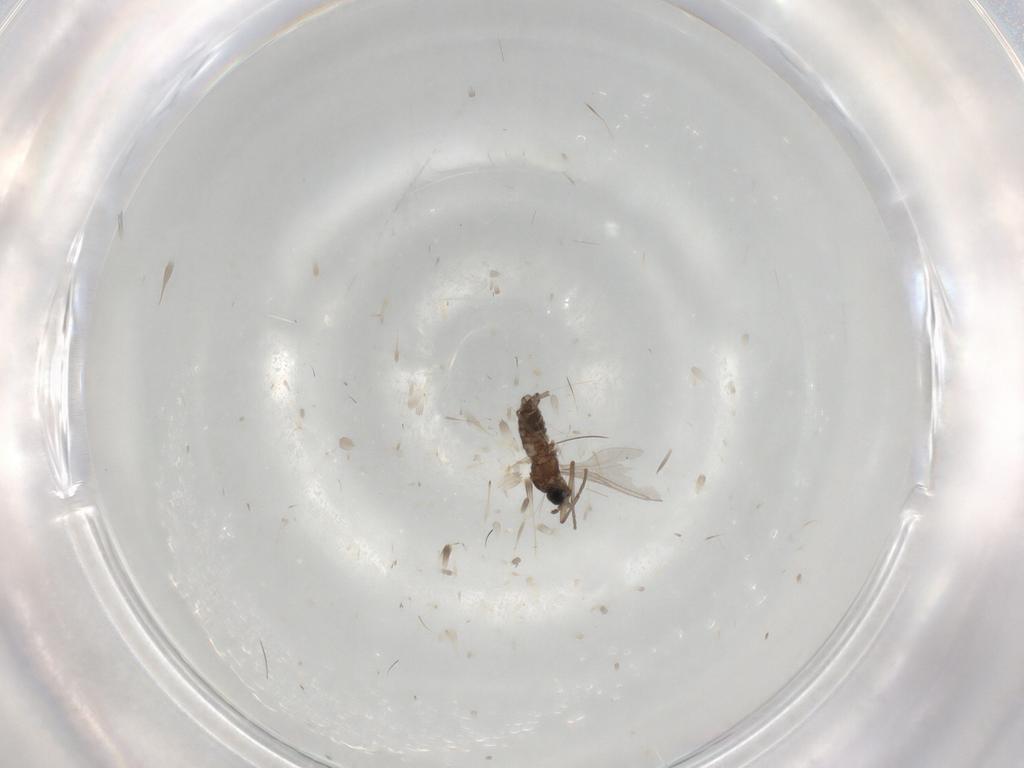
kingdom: Animalia
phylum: Arthropoda
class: Insecta
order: Diptera
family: Sciaridae
